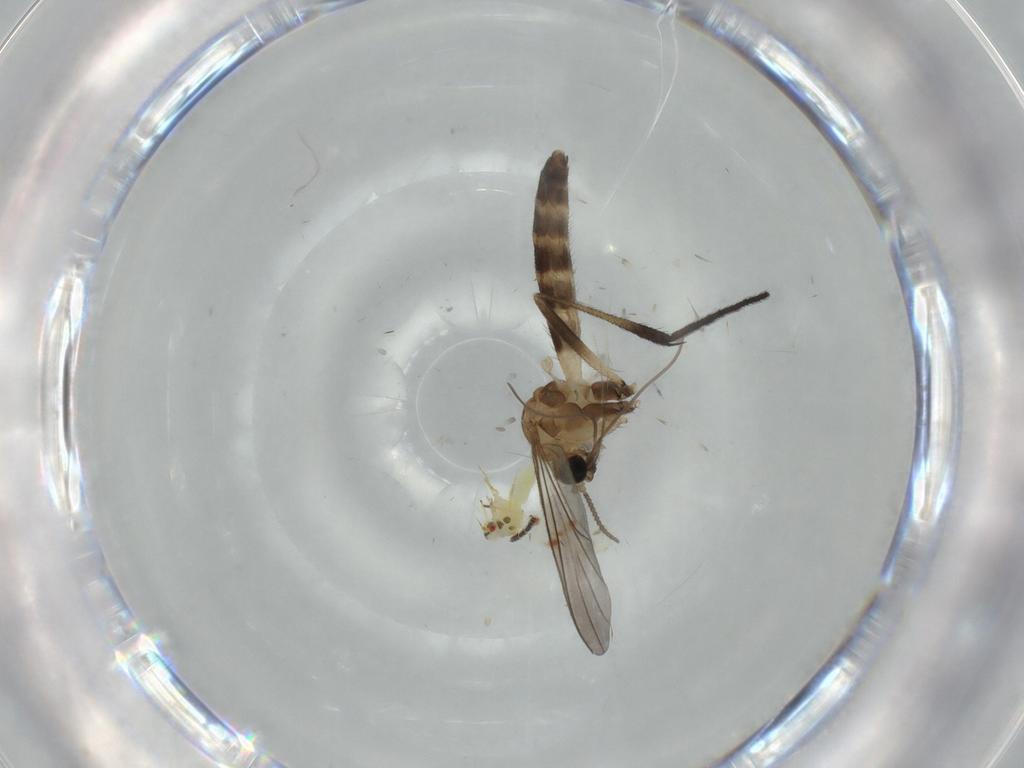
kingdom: Animalia
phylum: Arthropoda
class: Insecta
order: Diptera
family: Keroplatidae
